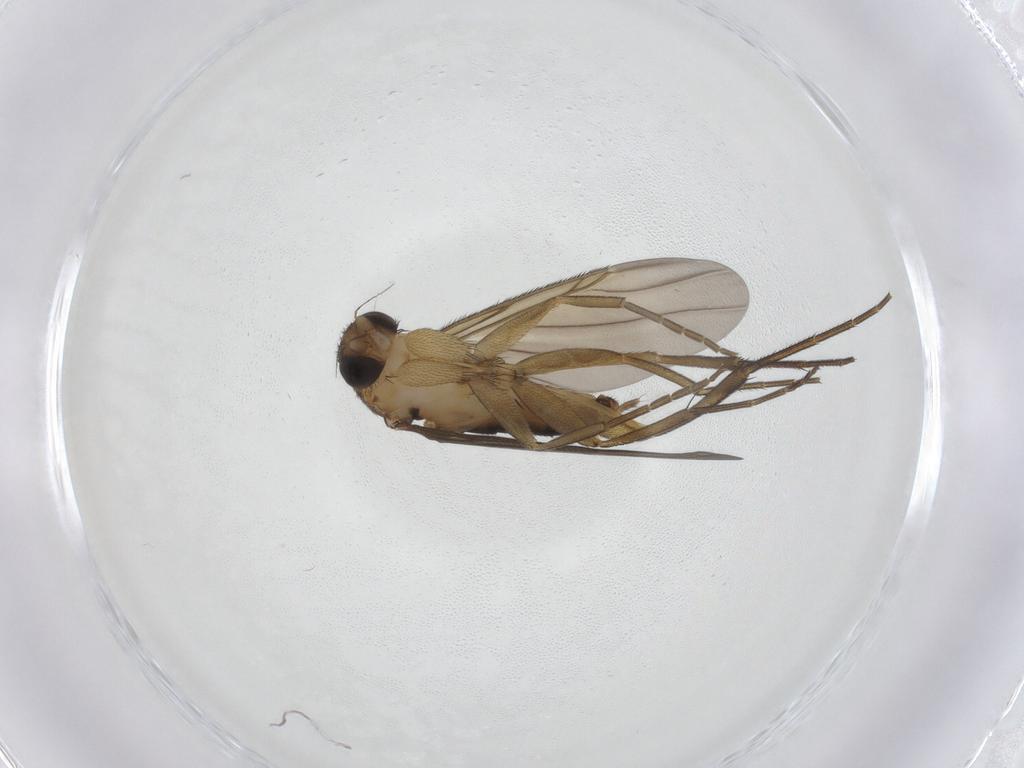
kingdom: Animalia
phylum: Arthropoda
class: Insecta
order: Diptera
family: Phoridae
